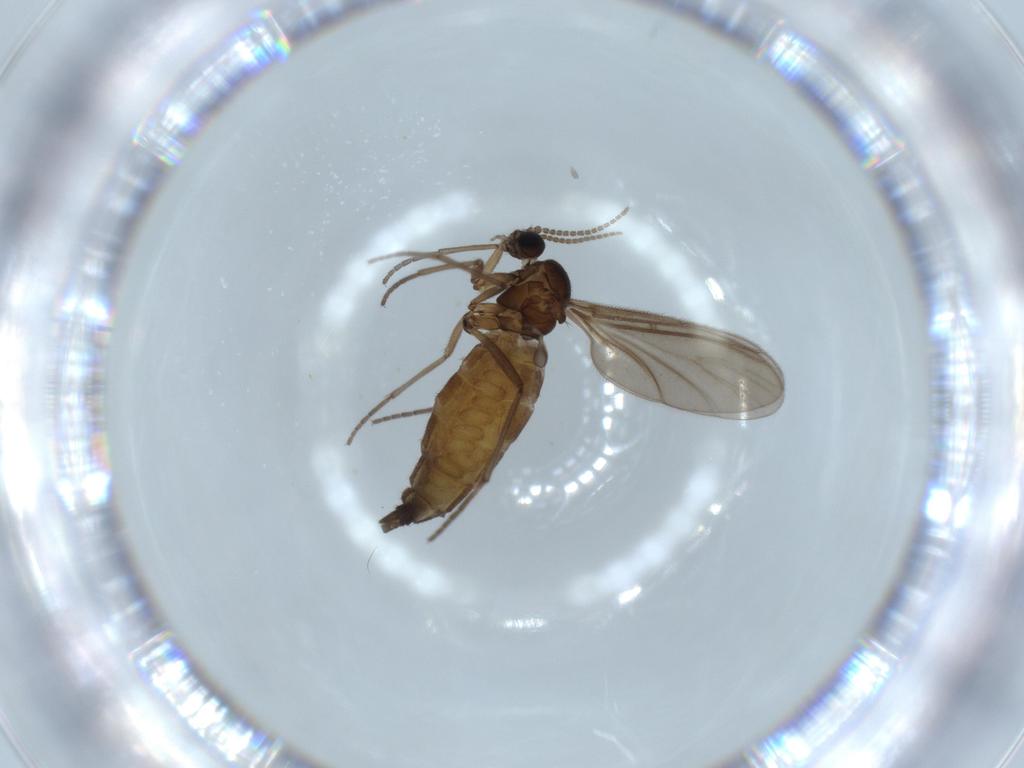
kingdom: Animalia
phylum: Arthropoda
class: Insecta
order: Diptera
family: Sciaridae
